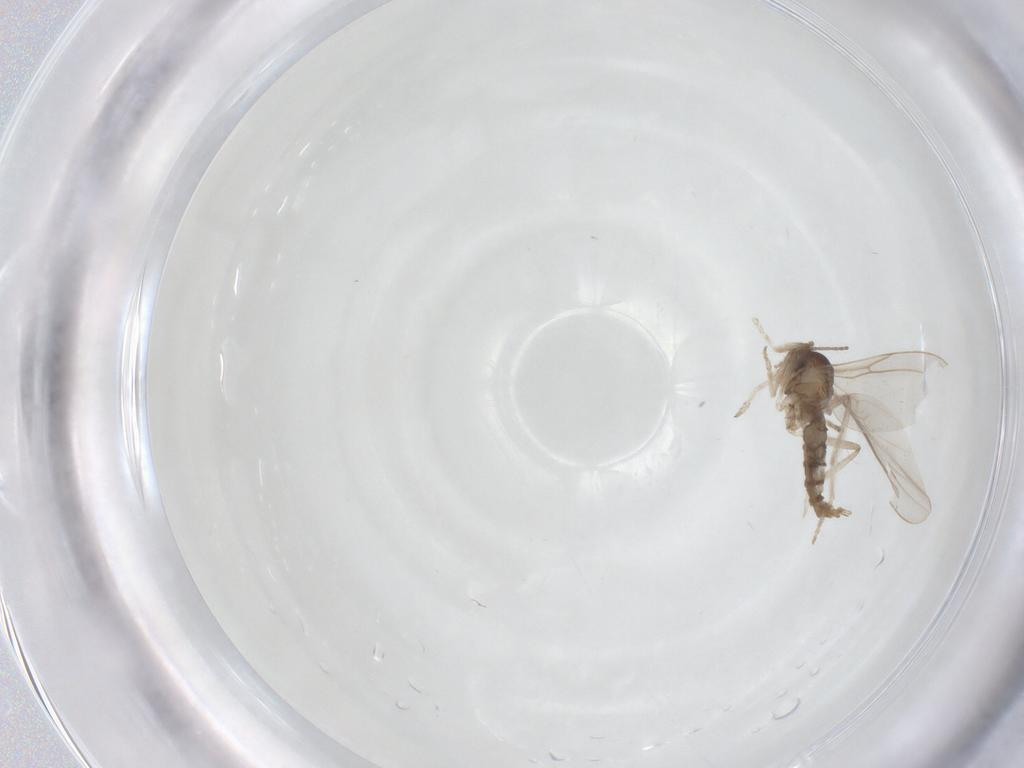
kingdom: Animalia
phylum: Arthropoda
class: Insecta
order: Diptera
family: Cecidomyiidae
